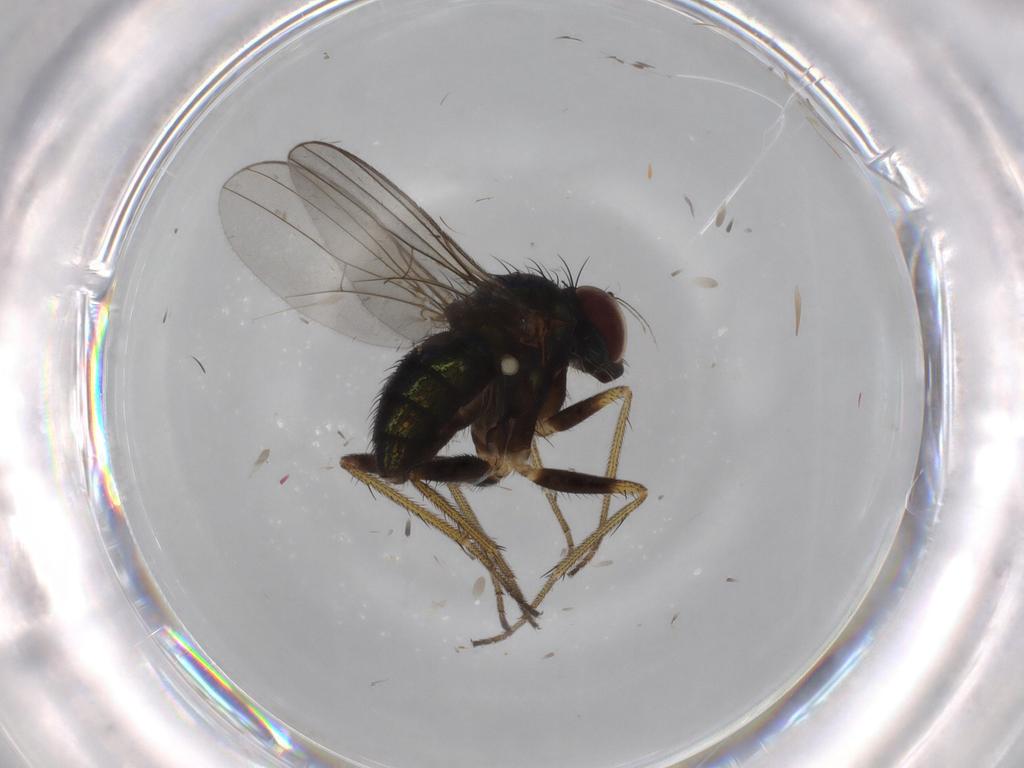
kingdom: Animalia
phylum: Arthropoda
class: Insecta
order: Diptera
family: Dolichopodidae
